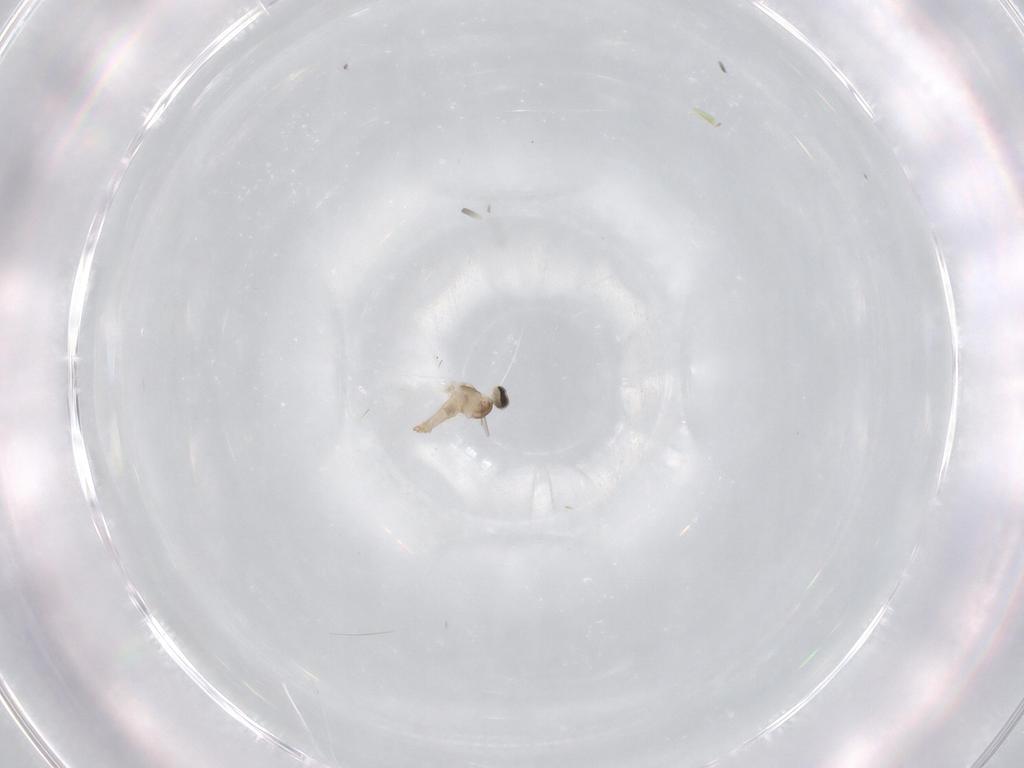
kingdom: Animalia
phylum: Arthropoda
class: Insecta
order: Diptera
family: Cecidomyiidae
